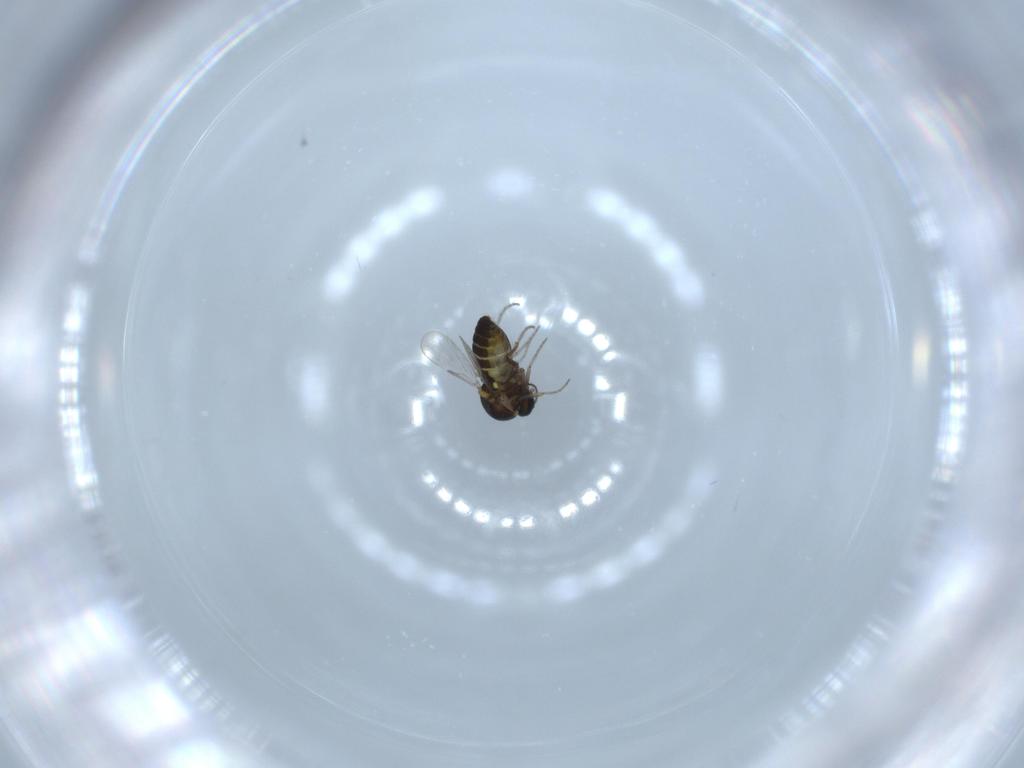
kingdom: Animalia
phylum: Arthropoda
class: Insecta
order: Diptera
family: Ceratopogonidae
